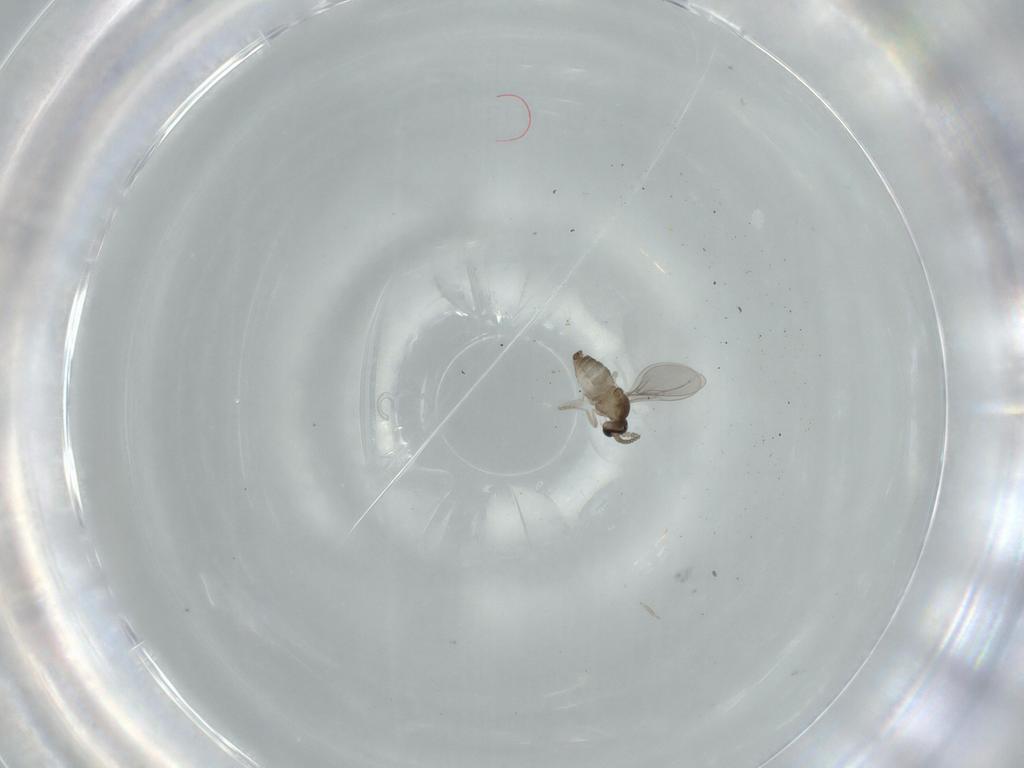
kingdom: Animalia
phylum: Arthropoda
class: Insecta
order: Diptera
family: Cecidomyiidae
